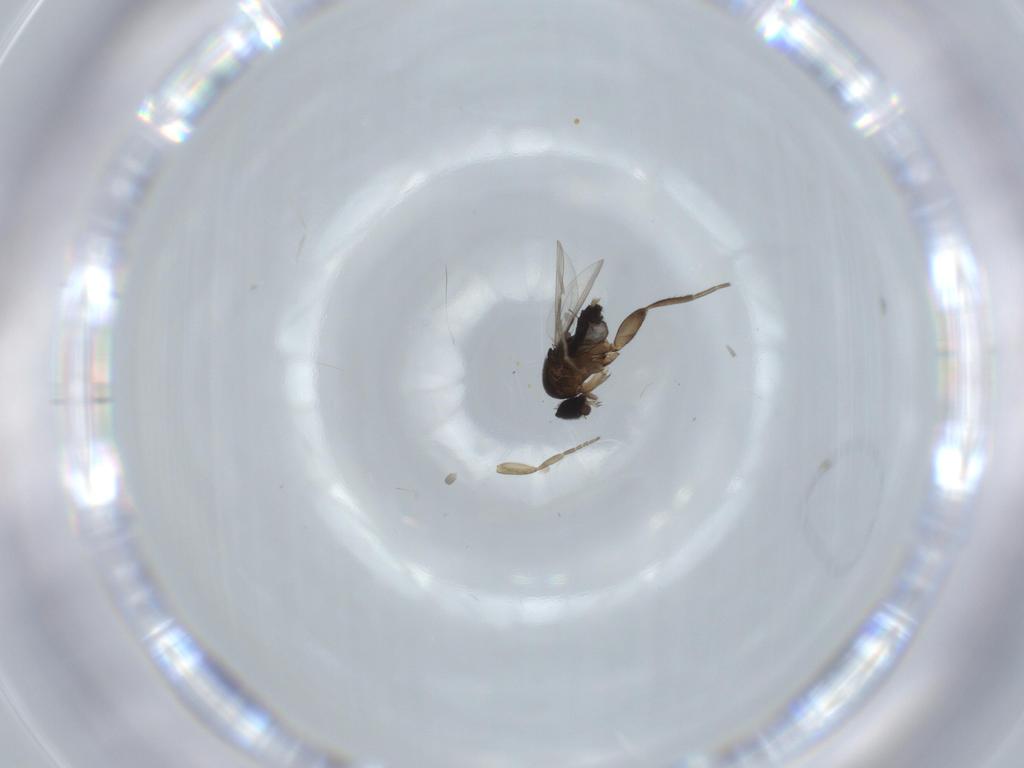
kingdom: Animalia
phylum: Arthropoda
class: Insecta
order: Diptera
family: Phoridae
